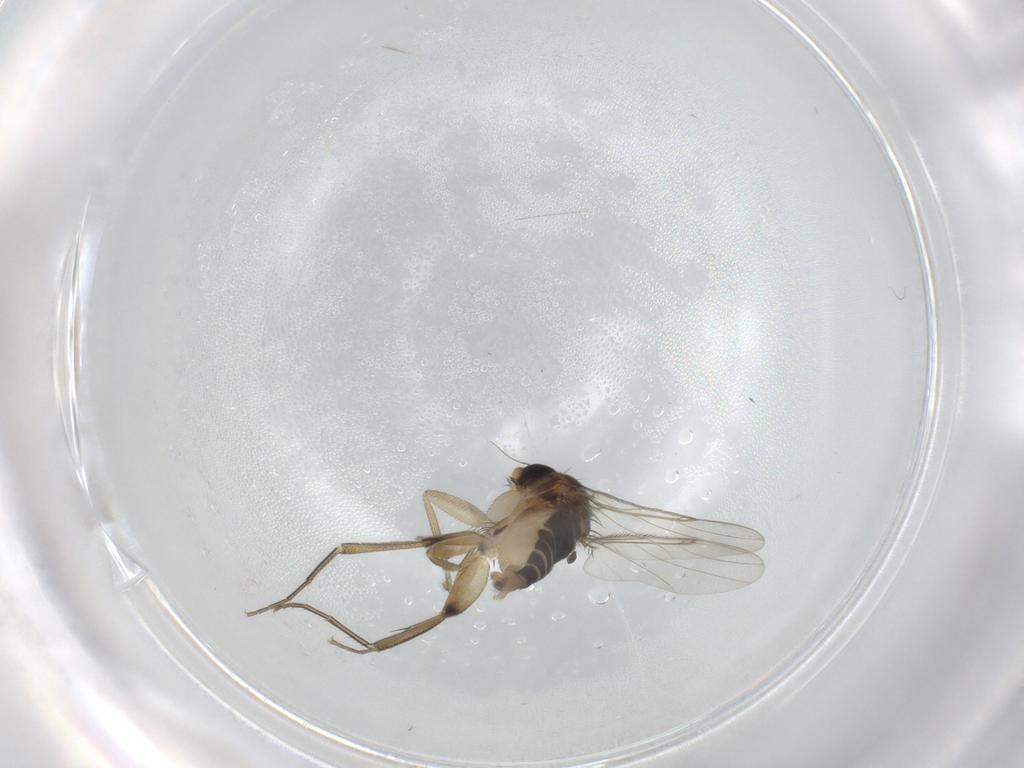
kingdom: Animalia
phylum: Arthropoda
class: Insecta
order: Diptera
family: Phoridae
